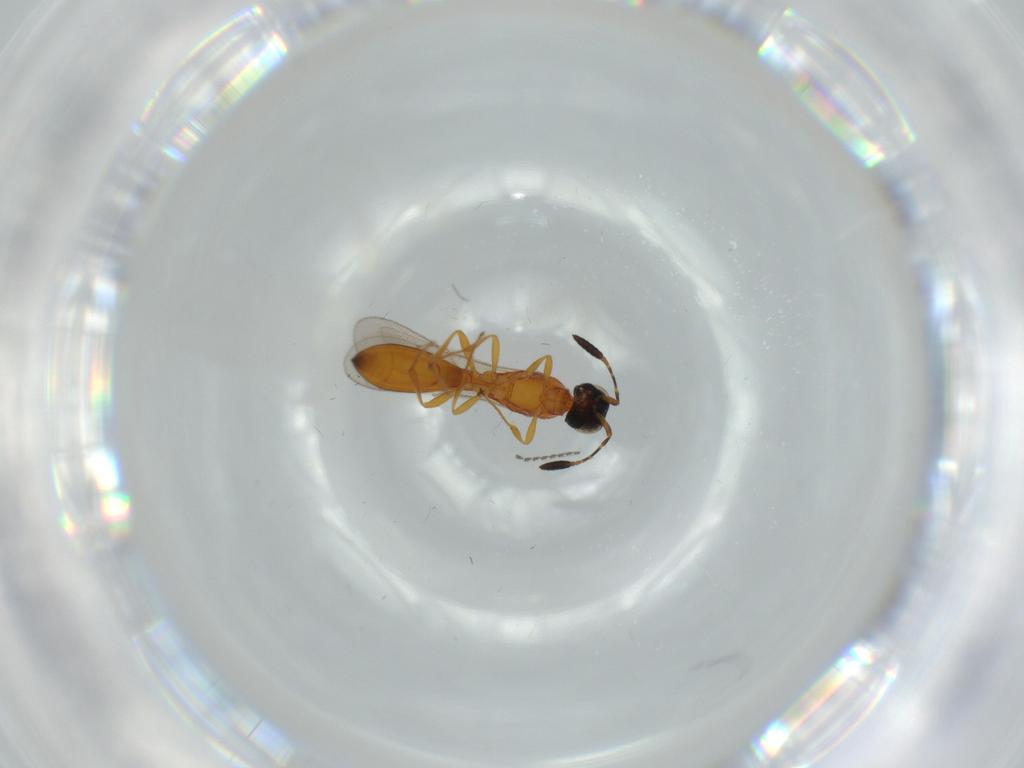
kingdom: Animalia
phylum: Arthropoda
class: Insecta
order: Hymenoptera
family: Scelionidae
